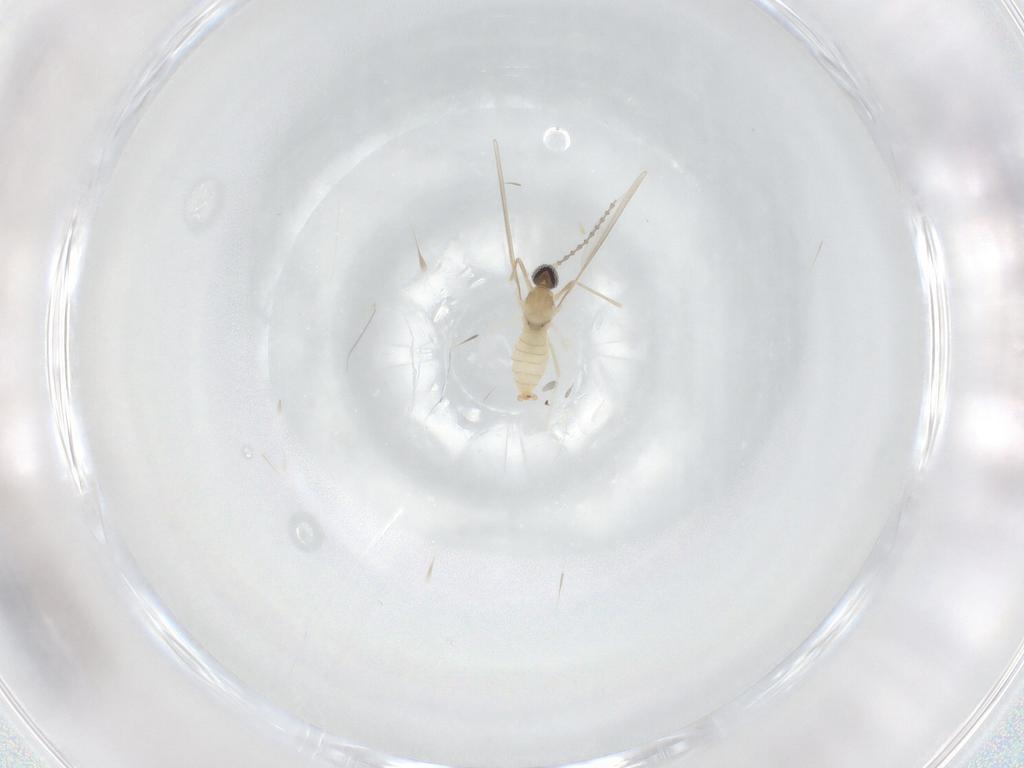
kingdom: Animalia
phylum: Arthropoda
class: Insecta
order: Diptera
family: Cecidomyiidae
